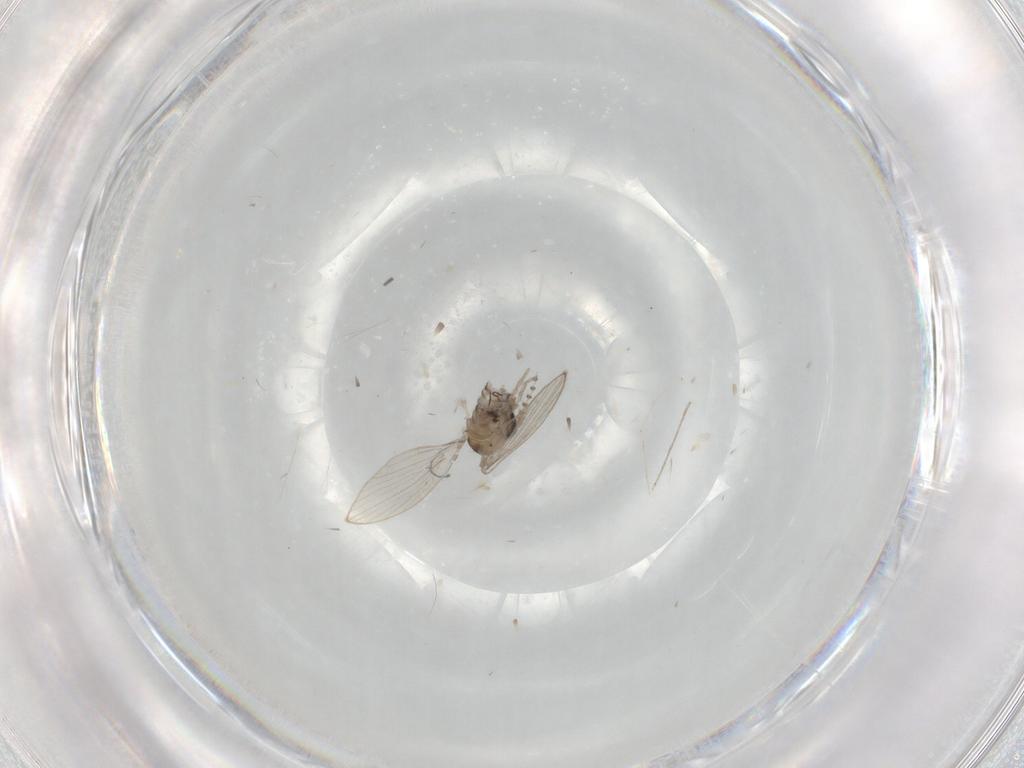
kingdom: Animalia
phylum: Arthropoda
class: Insecta
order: Diptera
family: Psychodidae
